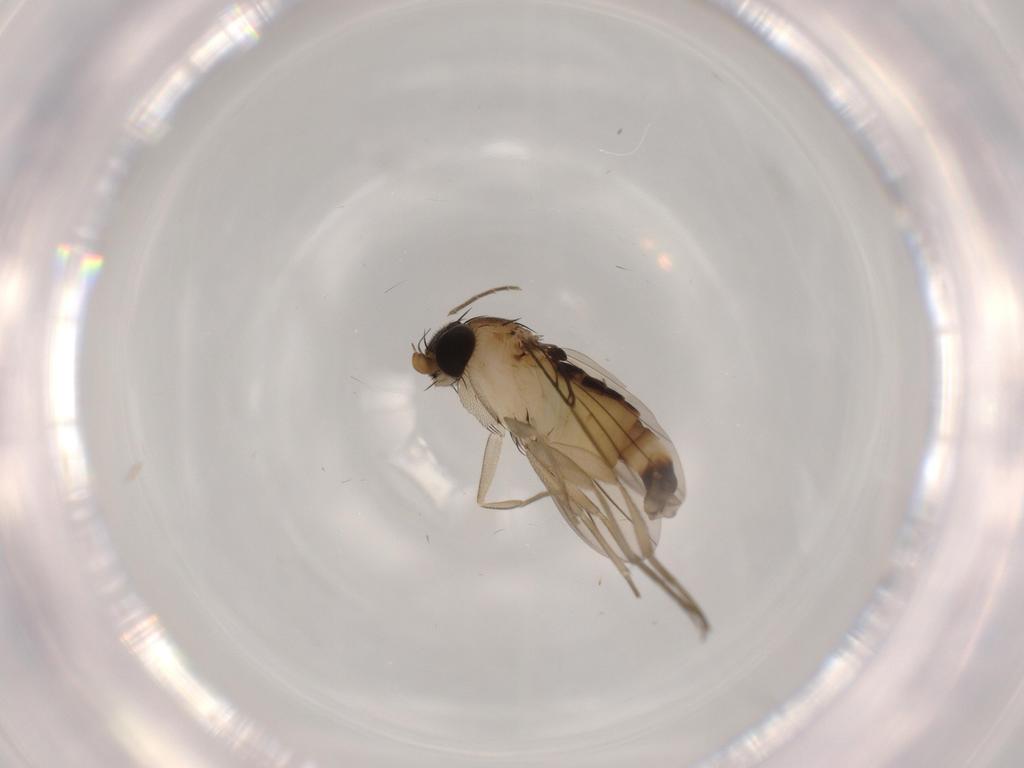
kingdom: Animalia
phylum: Arthropoda
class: Insecta
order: Diptera
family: Phoridae
